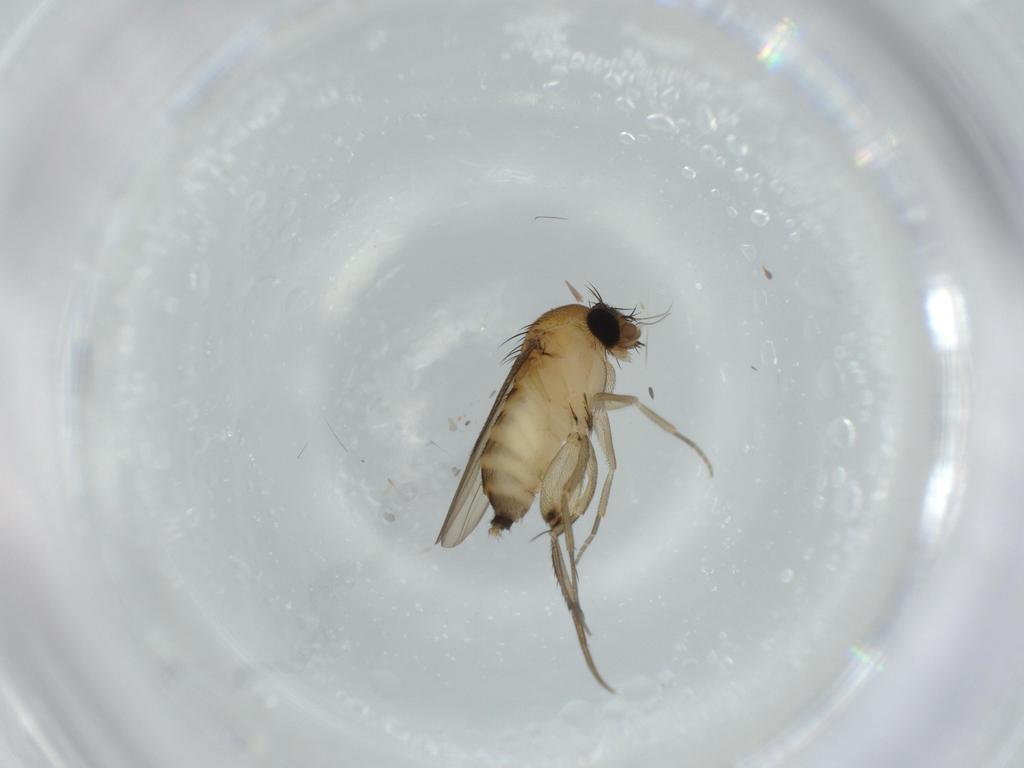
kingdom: Animalia
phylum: Arthropoda
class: Insecta
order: Diptera
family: Phoridae
